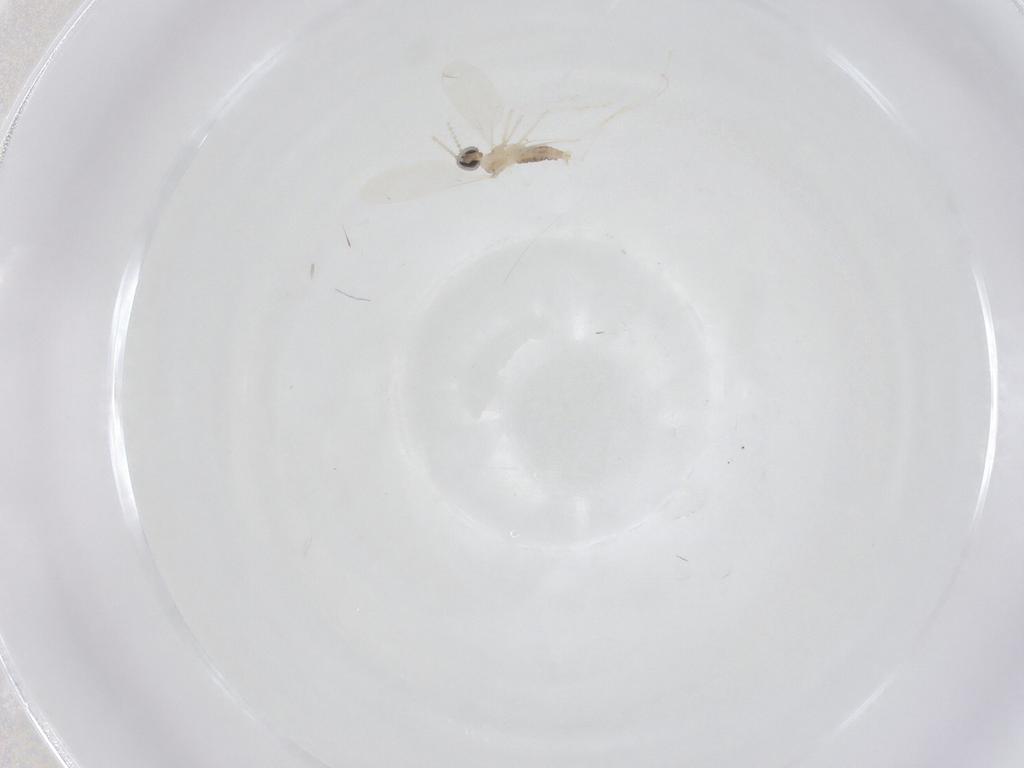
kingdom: Animalia
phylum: Arthropoda
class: Insecta
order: Diptera
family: Cecidomyiidae
